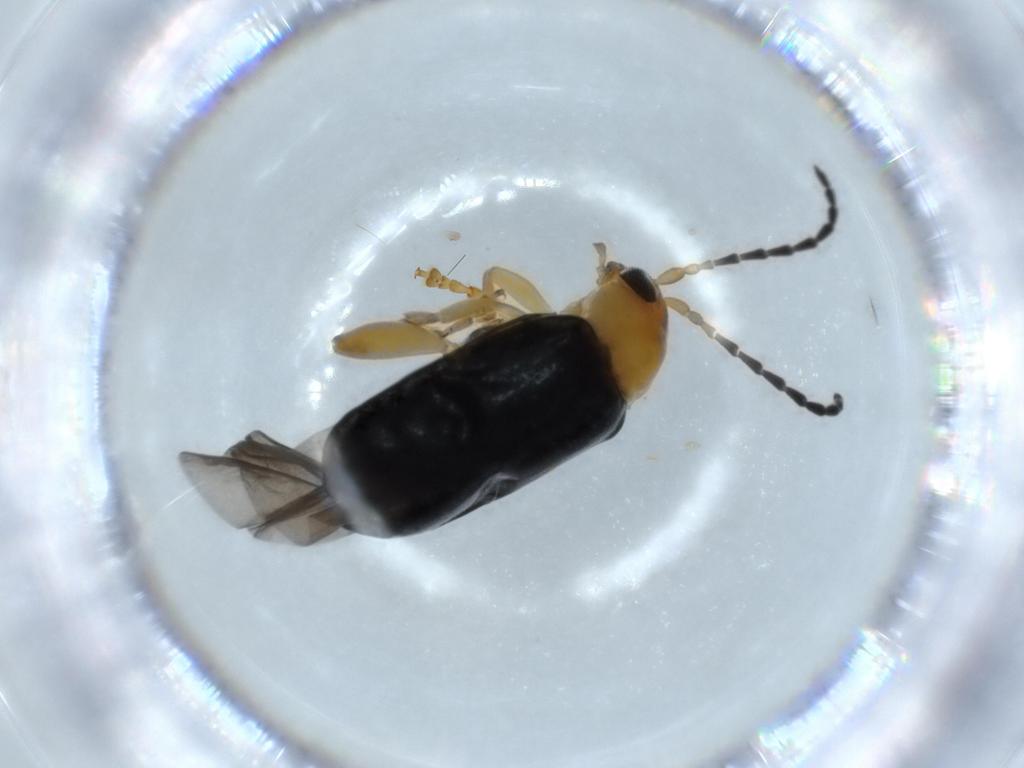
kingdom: Animalia
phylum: Arthropoda
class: Insecta
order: Coleoptera
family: Chrysomelidae
